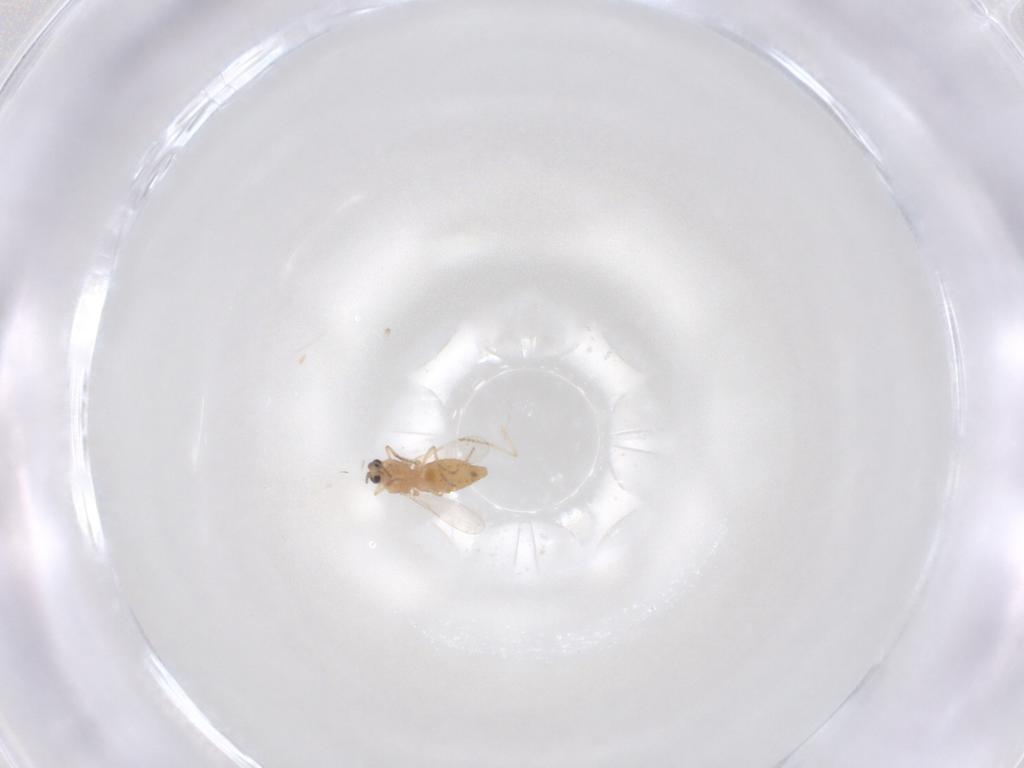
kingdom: Animalia
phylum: Arthropoda
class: Insecta
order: Diptera
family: Ceratopogonidae
